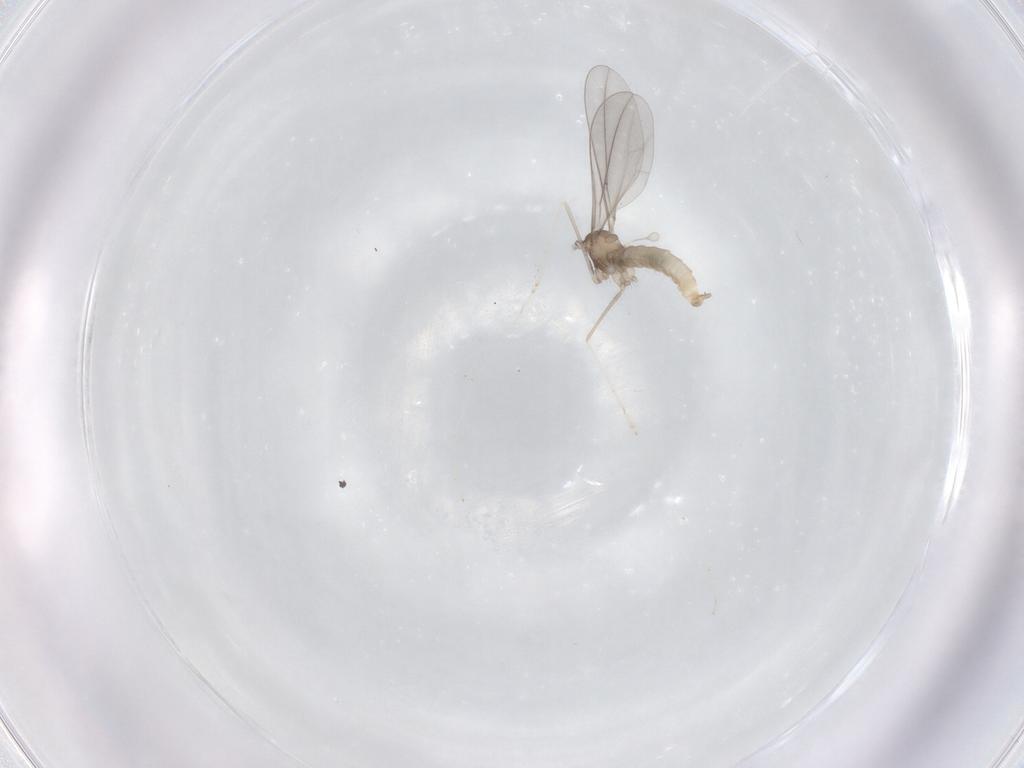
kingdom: Animalia
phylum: Arthropoda
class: Insecta
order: Diptera
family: Cecidomyiidae
